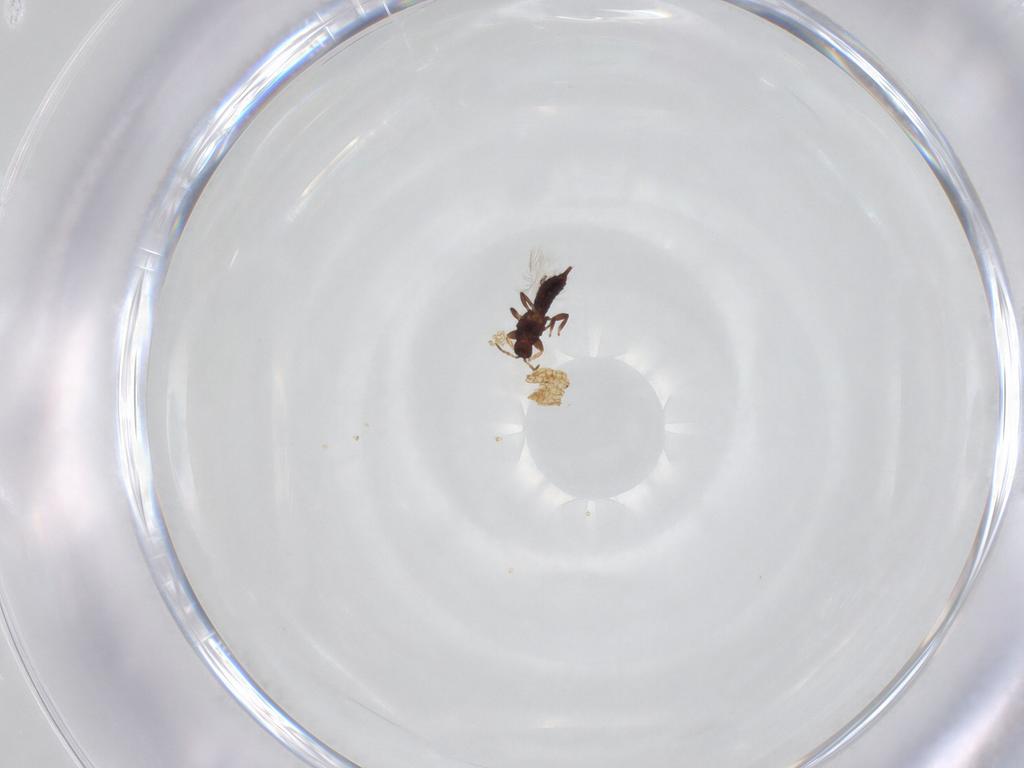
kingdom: Animalia
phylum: Arthropoda
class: Insecta
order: Thysanoptera
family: Phlaeothripidae
